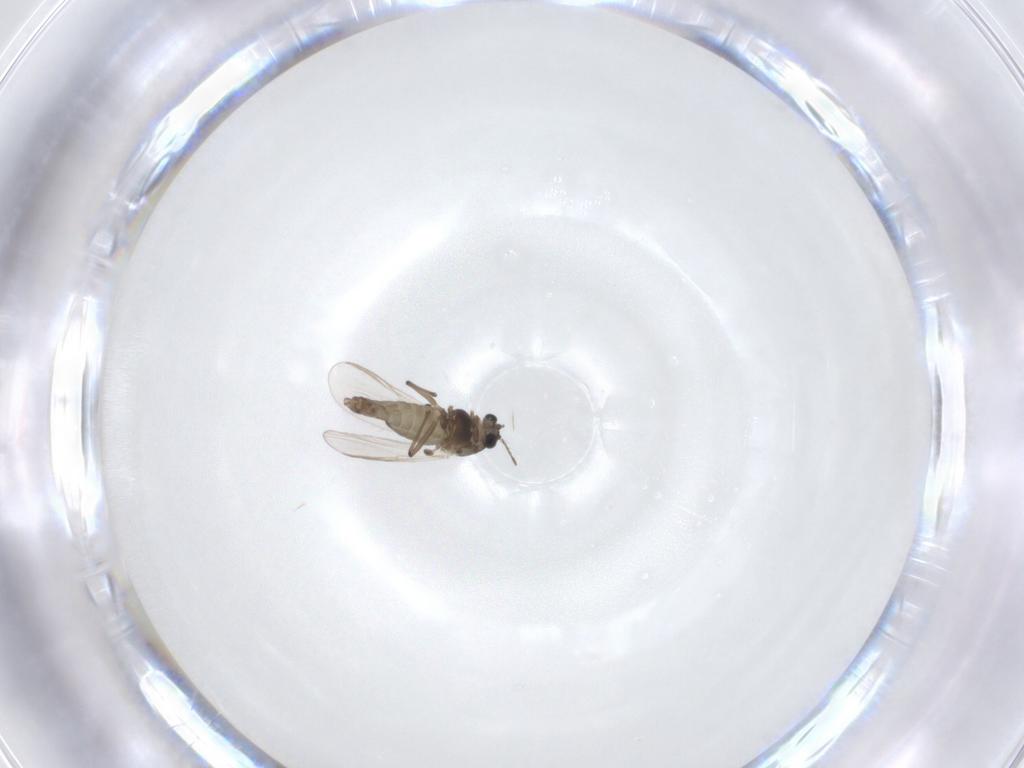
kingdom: Animalia
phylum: Arthropoda
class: Insecta
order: Diptera
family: Chironomidae
